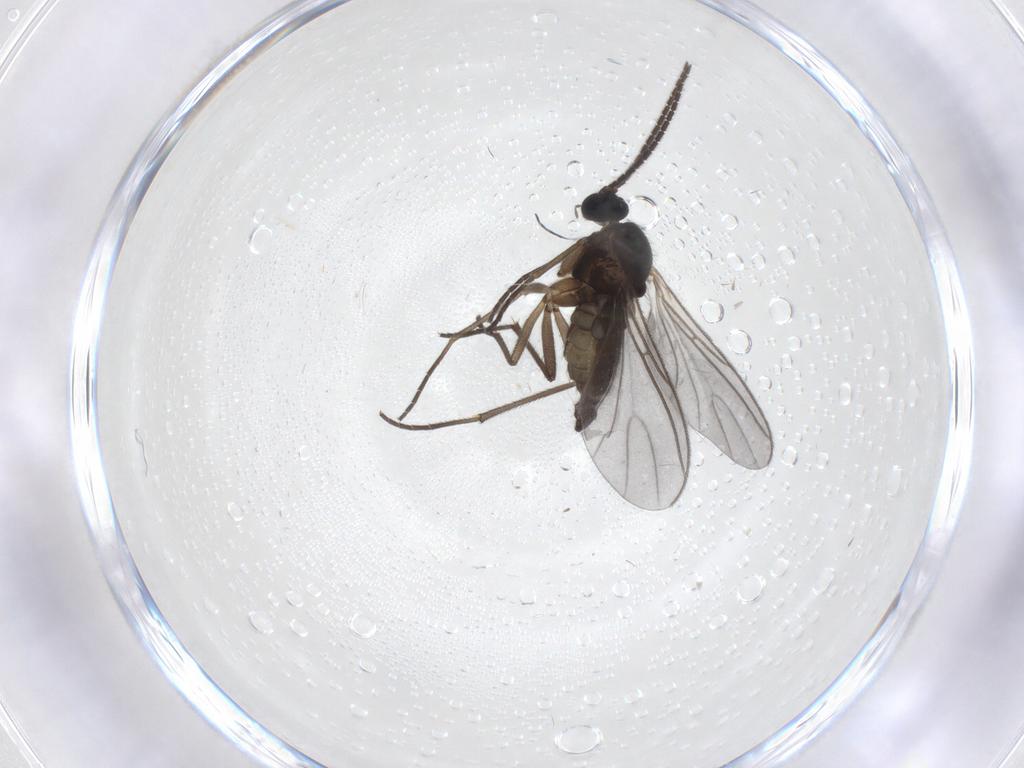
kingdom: Animalia
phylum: Arthropoda
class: Insecta
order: Diptera
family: Sciaridae
